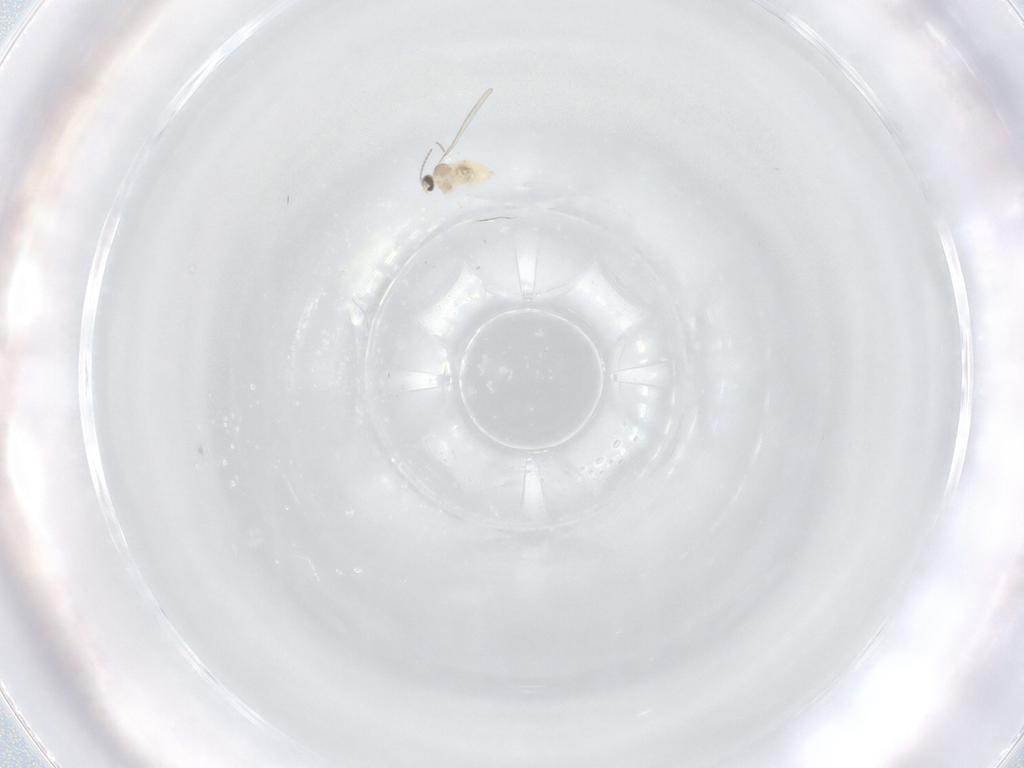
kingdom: Animalia
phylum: Arthropoda
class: Insecta
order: Diptera
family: Cecidomyiidae
